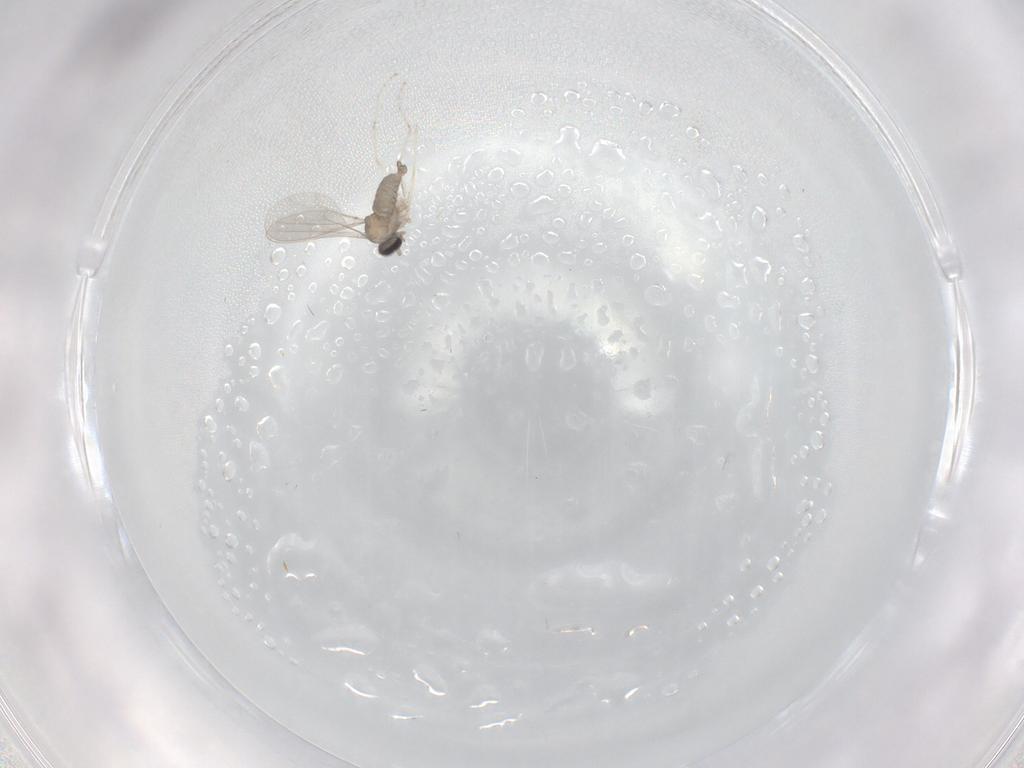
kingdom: Animalia
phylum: Arthropoda
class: Insecta
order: Diptera
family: Cecidomyiidae
